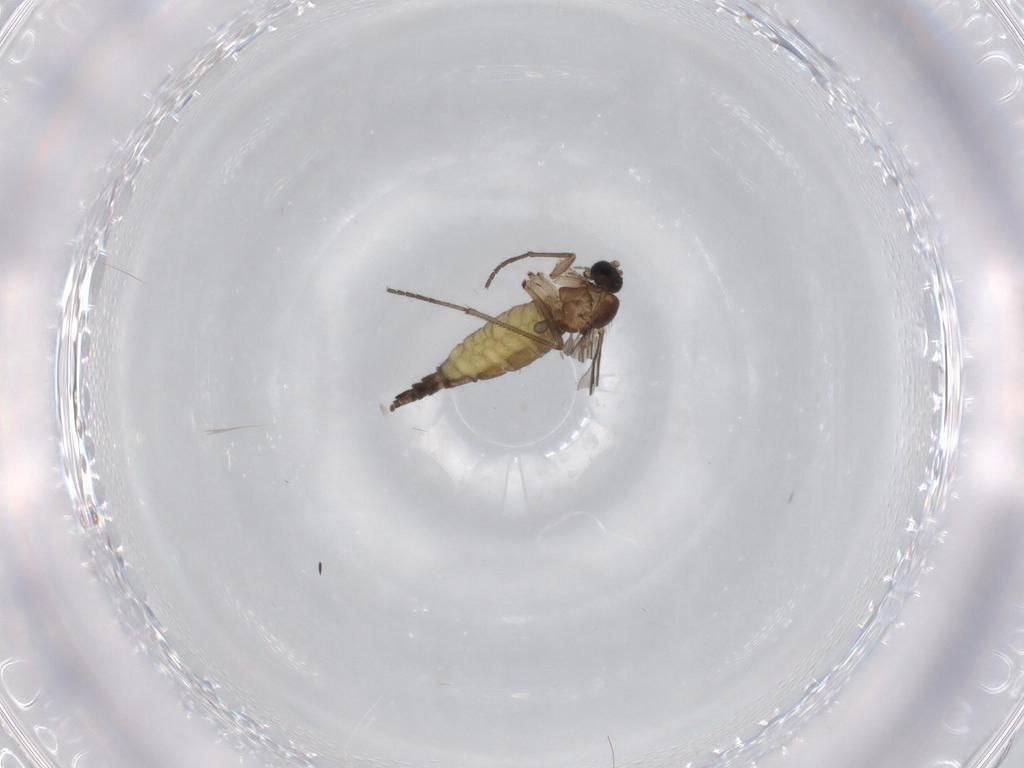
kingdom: Animalia
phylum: Arthropoda
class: Insecta
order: Diptera
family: Sciaridae
